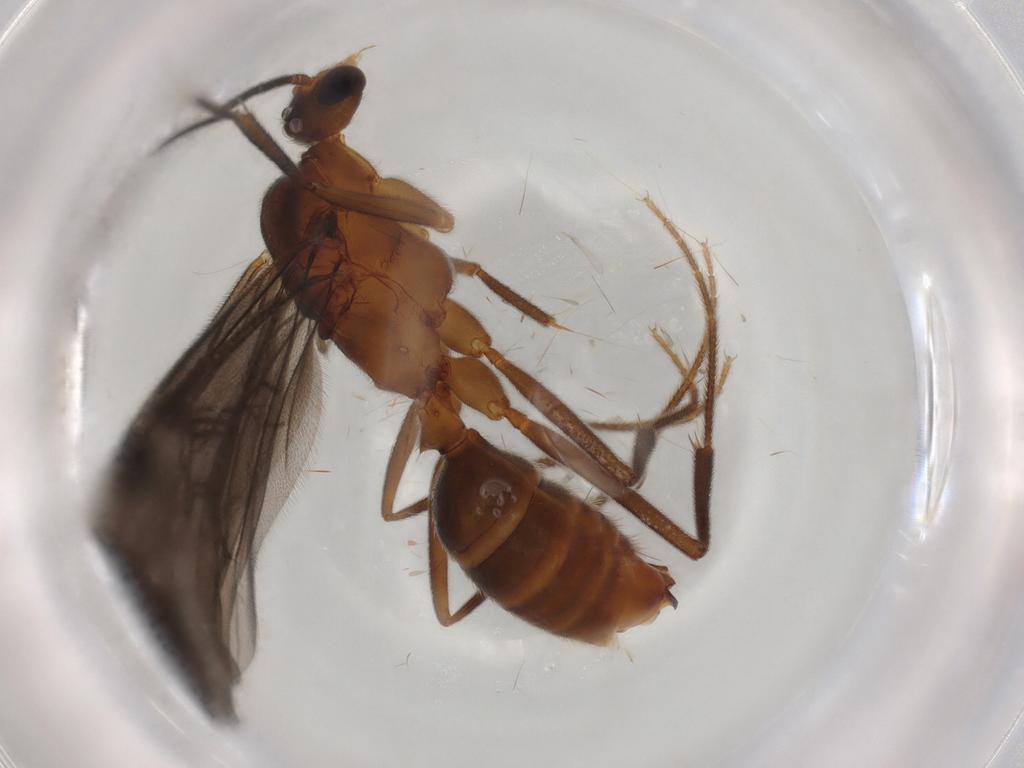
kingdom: Animalia
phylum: Arthropoda
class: Insecta
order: Hymenoptera
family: Formicidae
